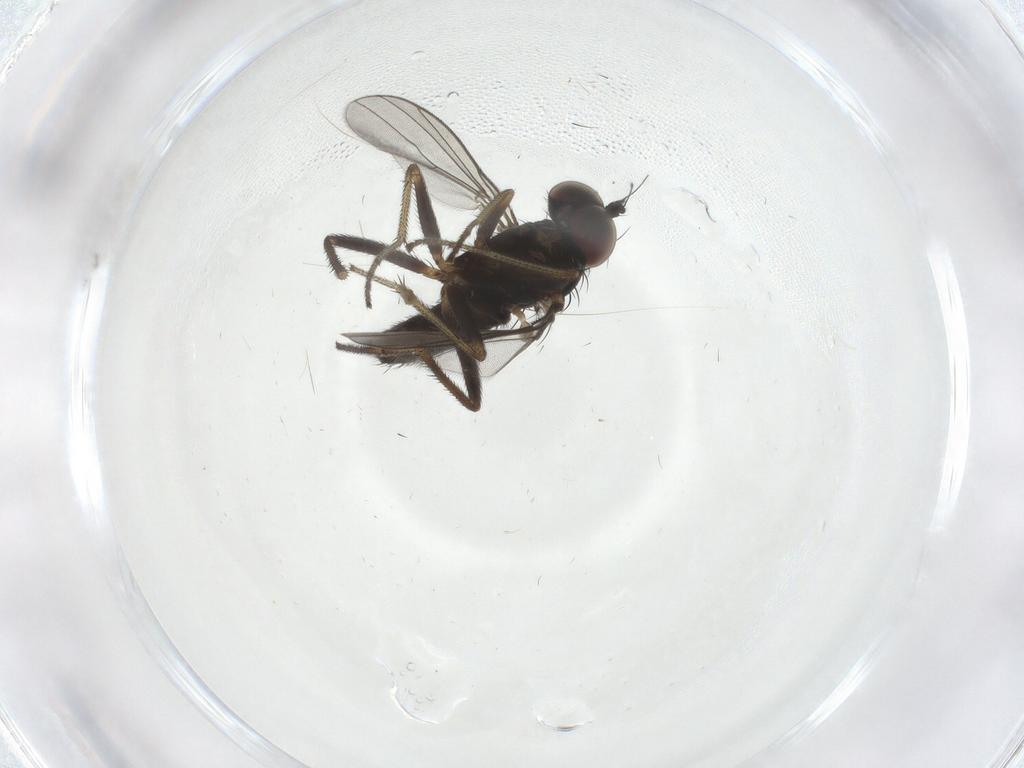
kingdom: Animalia
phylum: Arthropoda
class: Insecta
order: Diptera
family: Dolichopodidae
